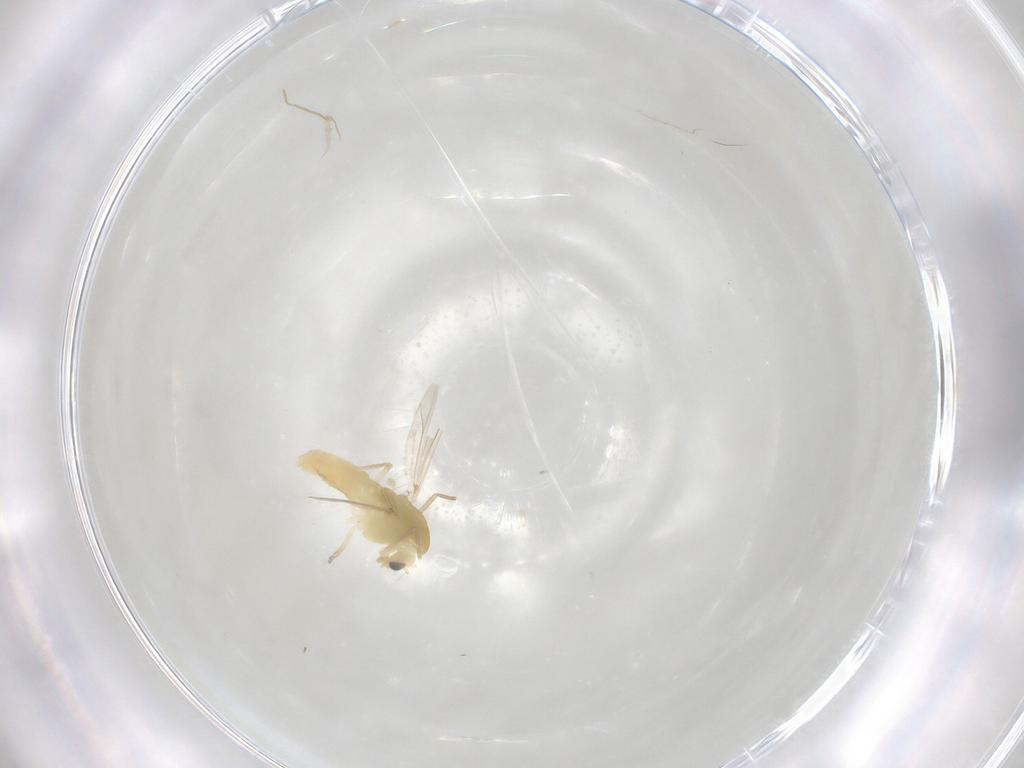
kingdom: Animalia
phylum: Arthropoda
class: Insecta
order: Diptera
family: Chironomidae
